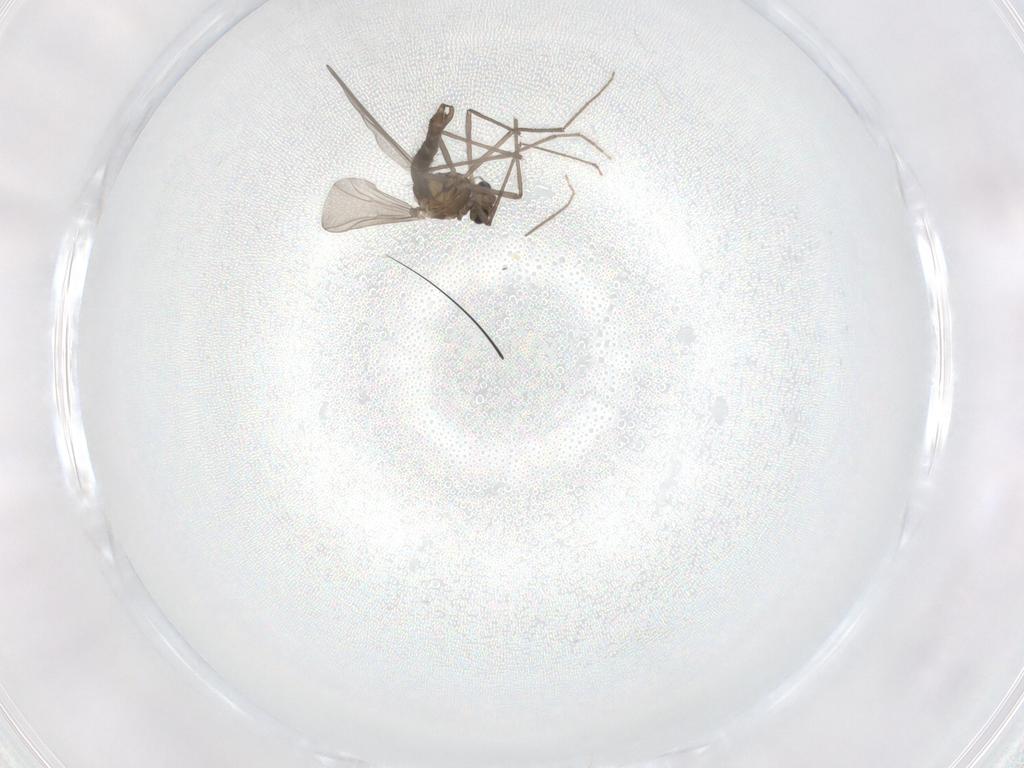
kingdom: Animalia
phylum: Arthropoda
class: Insecta
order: Diptera
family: Chironomidae
